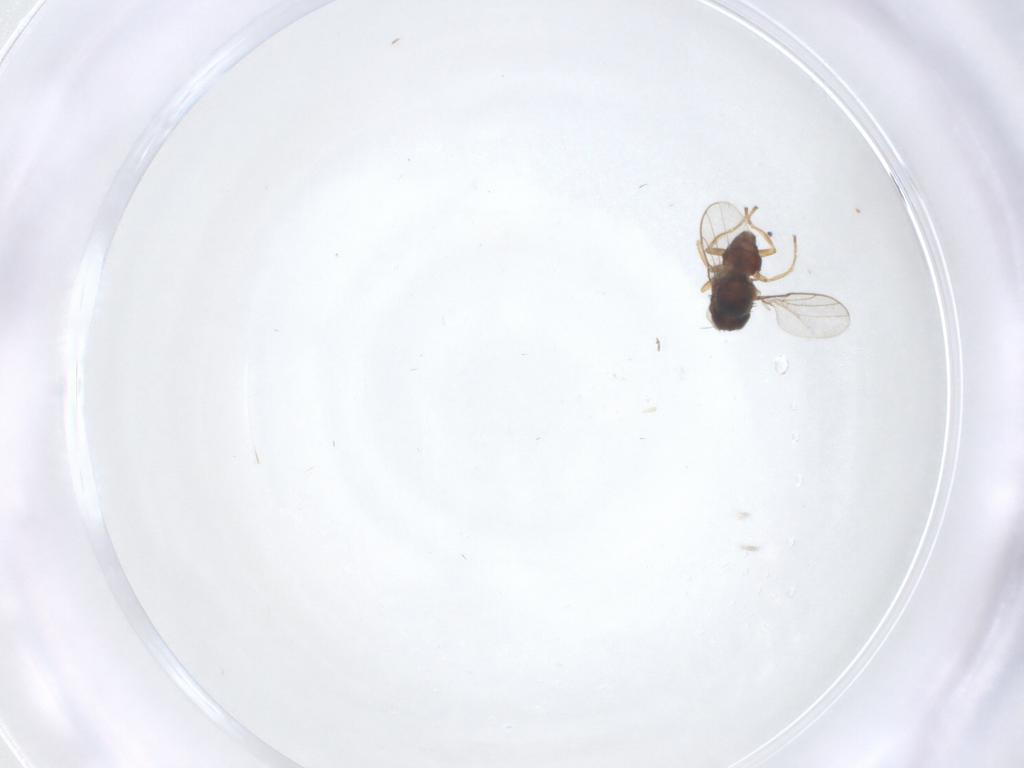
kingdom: Animalia
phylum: Arthropoda
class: Insecta
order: Diptera
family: Chloropidae
